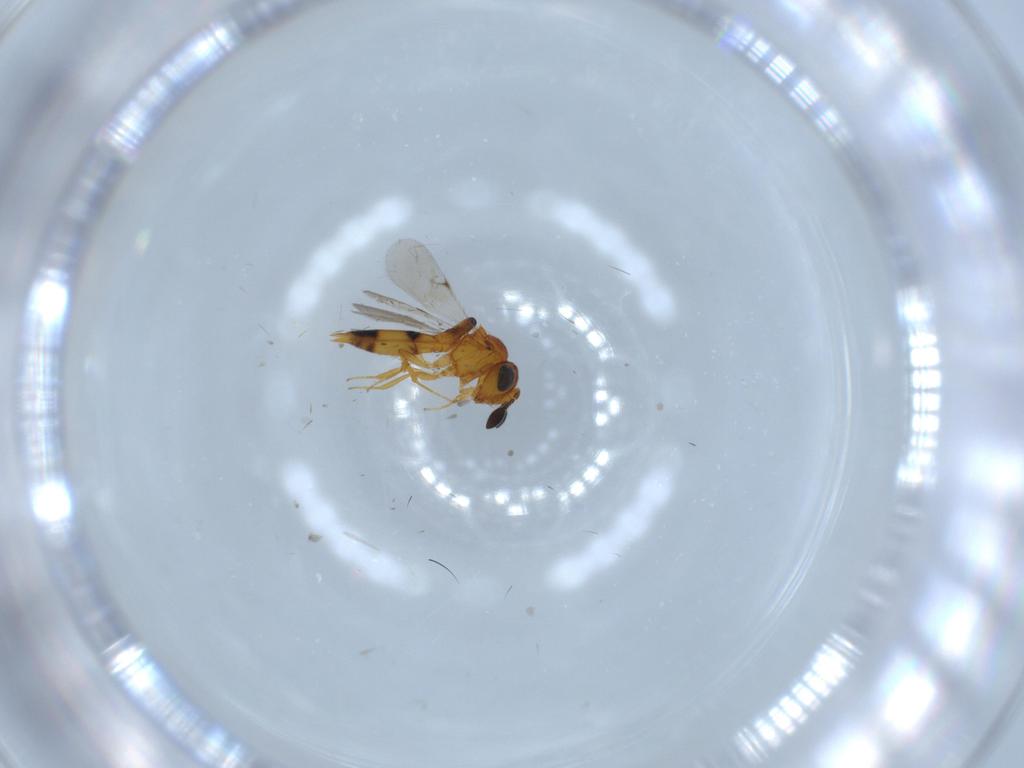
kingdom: Animalia
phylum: Arthropoda
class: Insecta
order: Hymenoptera
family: Scelionidae
